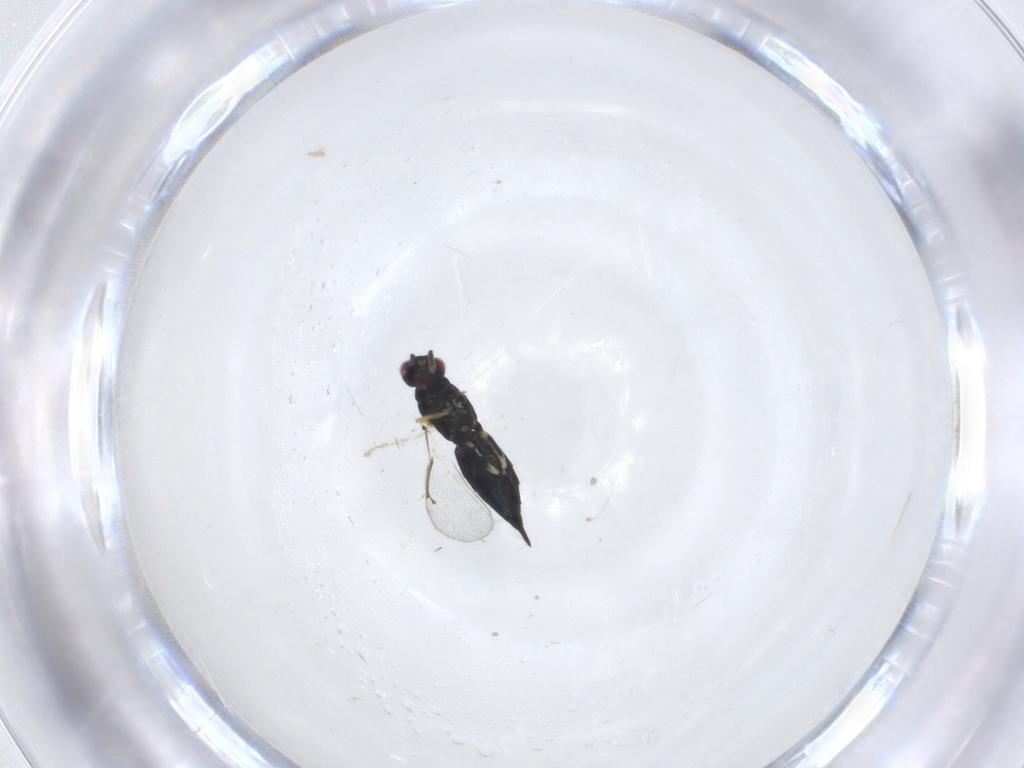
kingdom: Animalia
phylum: Arthropoda
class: Insecta
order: Hymenoptera
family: Eulophidae
